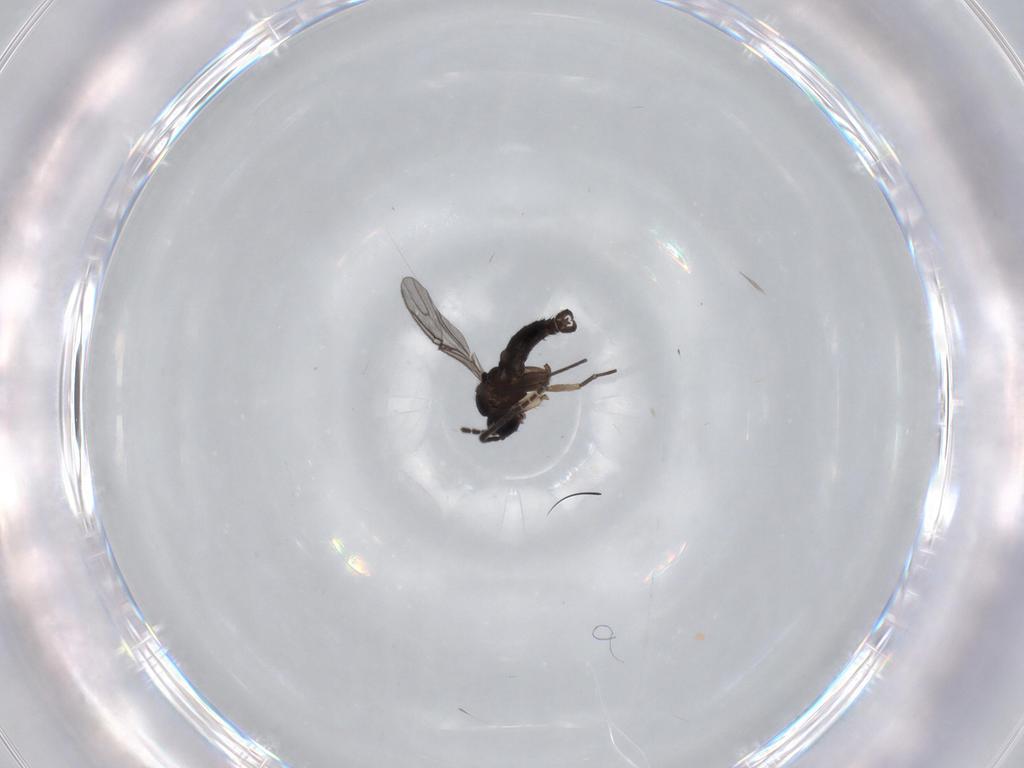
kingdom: Animalia
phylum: Arthropoda
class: Insecta
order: Diptera
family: Sciaridae
